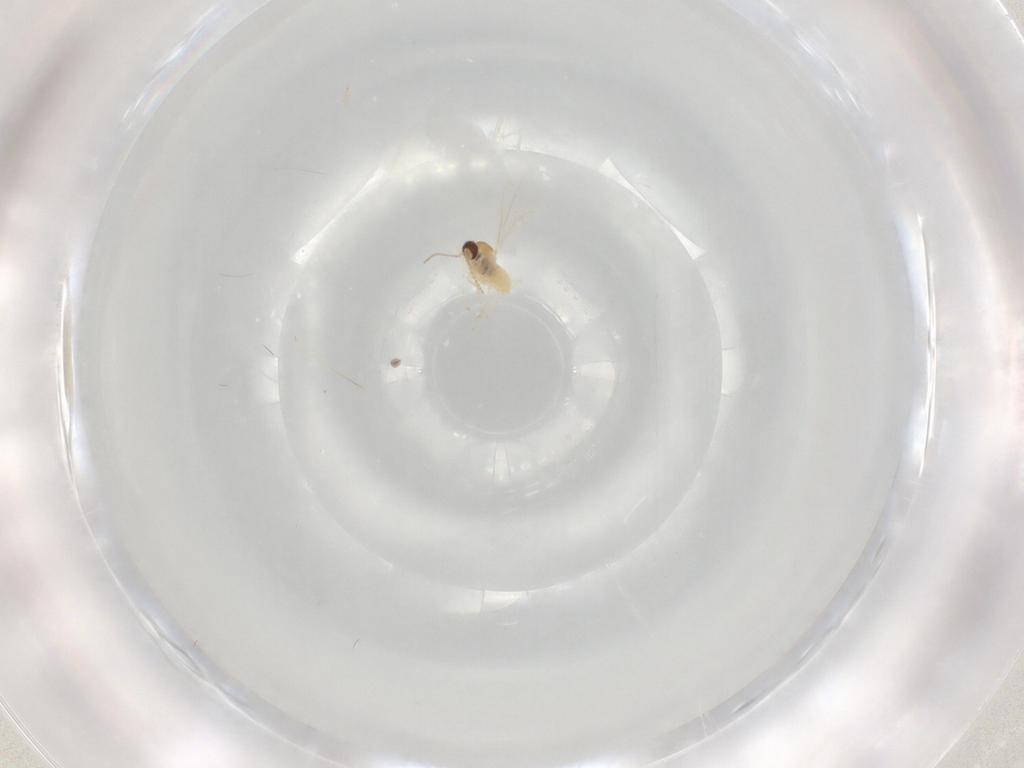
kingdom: Animalia
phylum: Arthropoda
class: Insecta
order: Diptera
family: Cecidomyiidae
